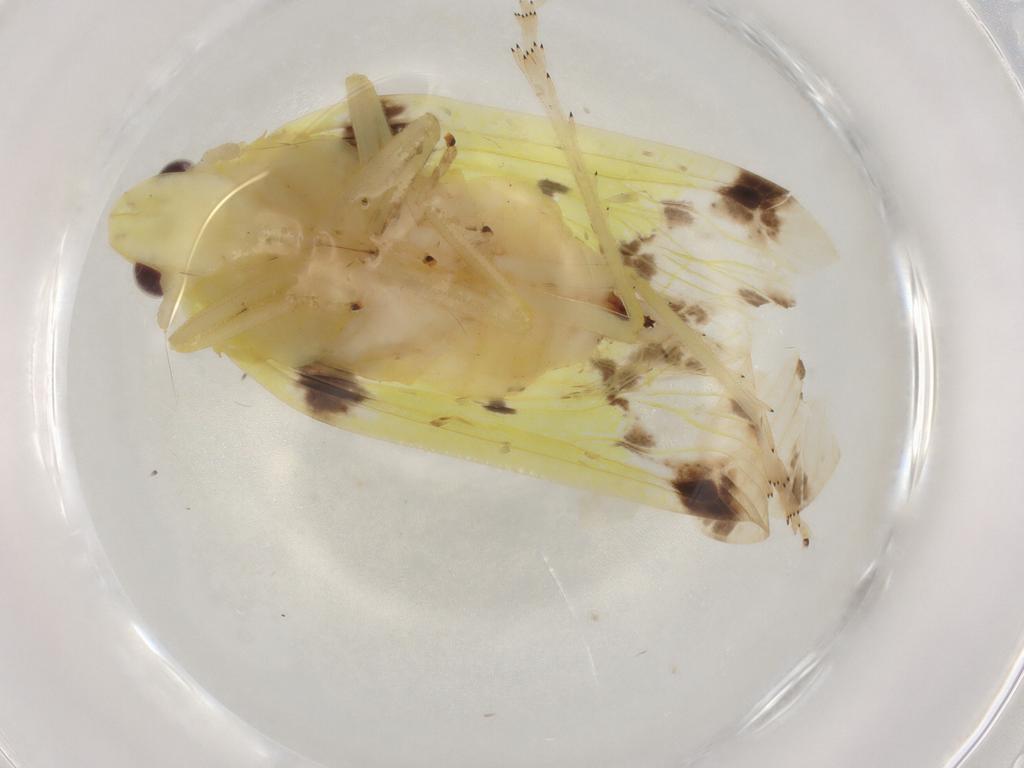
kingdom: Animalia
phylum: Arthropoda
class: Insecta
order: Hemiptera
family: Tropiduchidae
